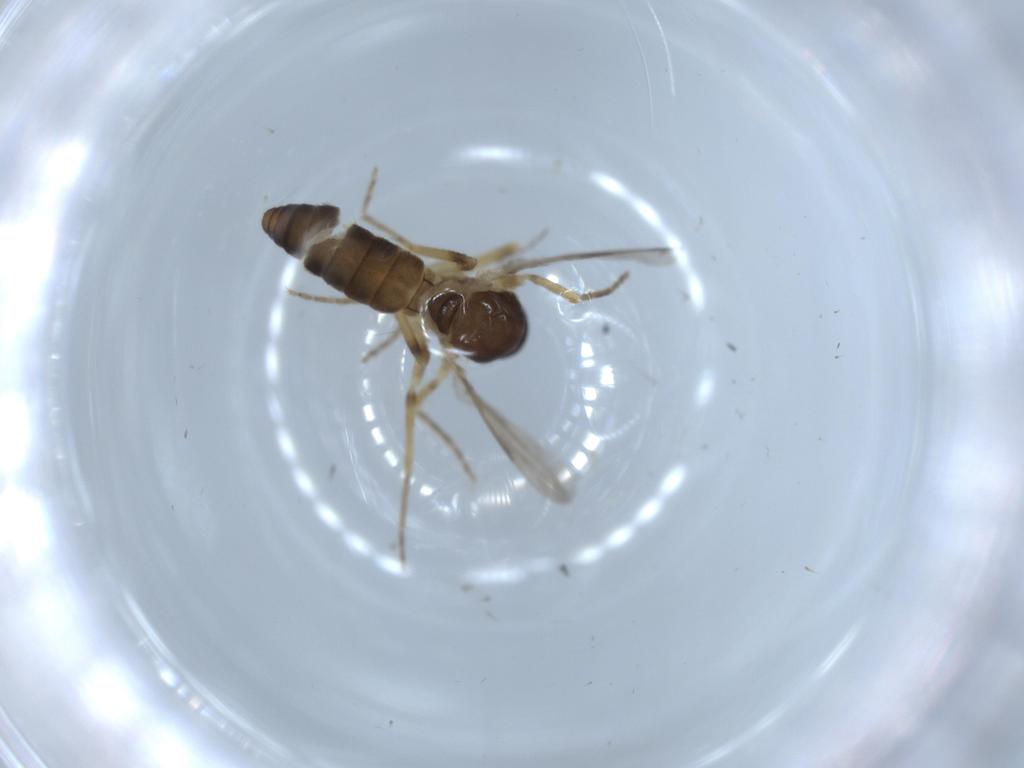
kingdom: Animalia
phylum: Arthropoda
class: Insecta
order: Diptera
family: Ceratopogonidae
